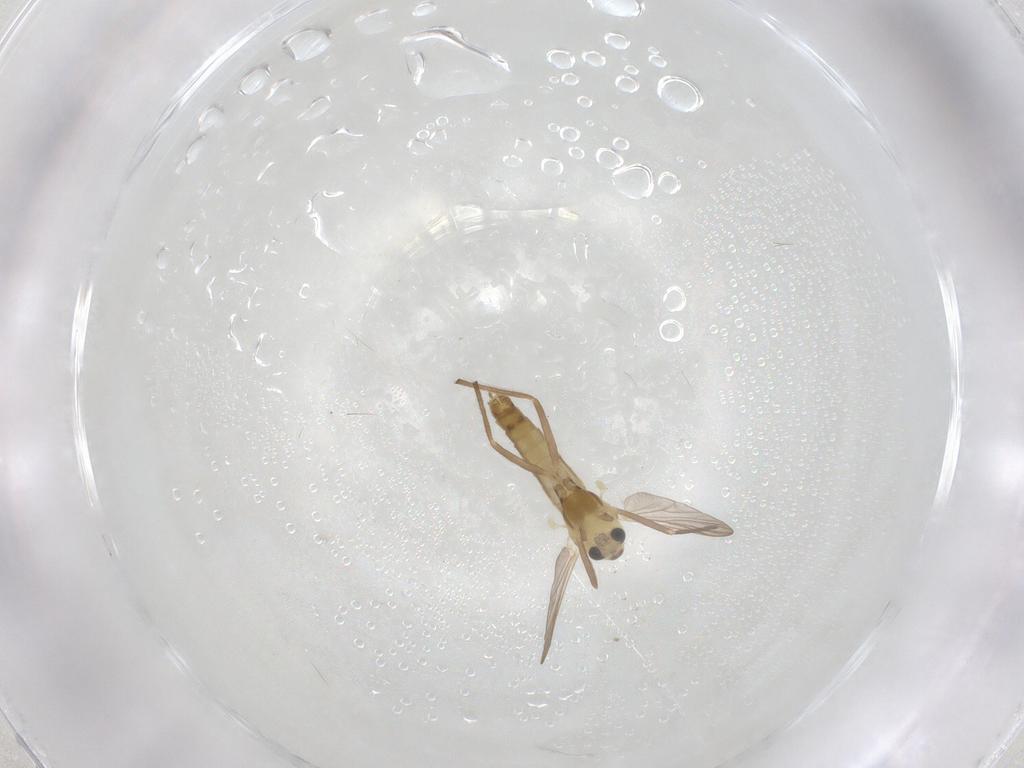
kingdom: Animalia
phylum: Arthropoda
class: Insecta
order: Diptera
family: Chironomidae
